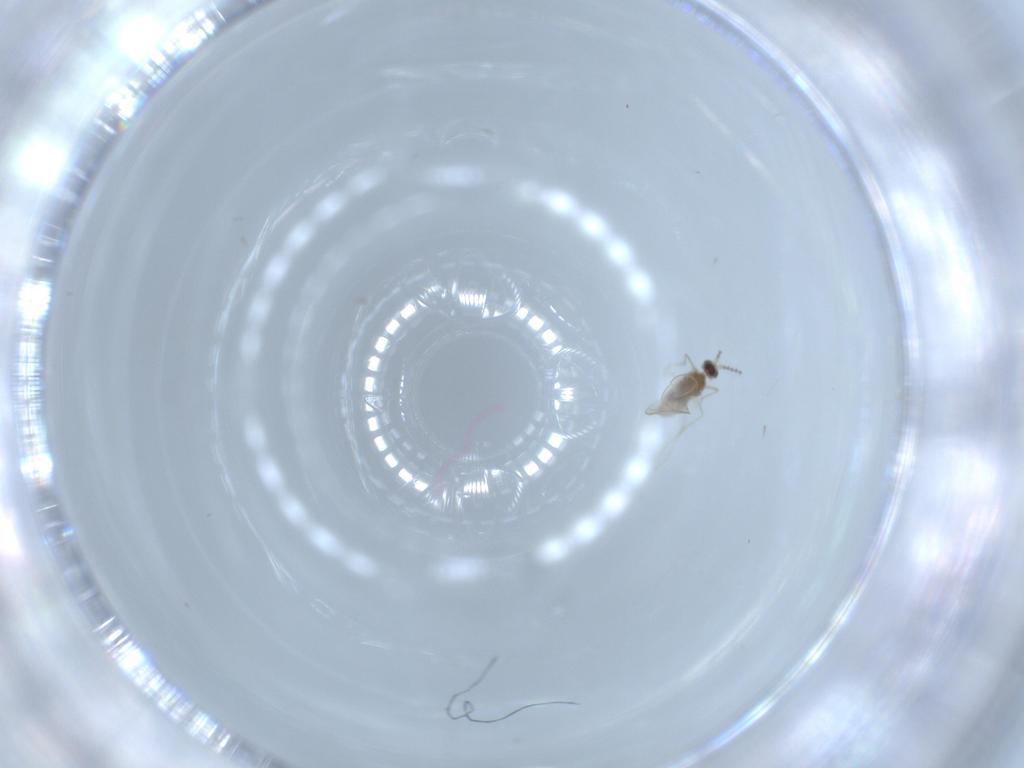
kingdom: Animalia
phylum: Arthropoda
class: Insecta
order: Diptera
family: Cecidomyiidae
